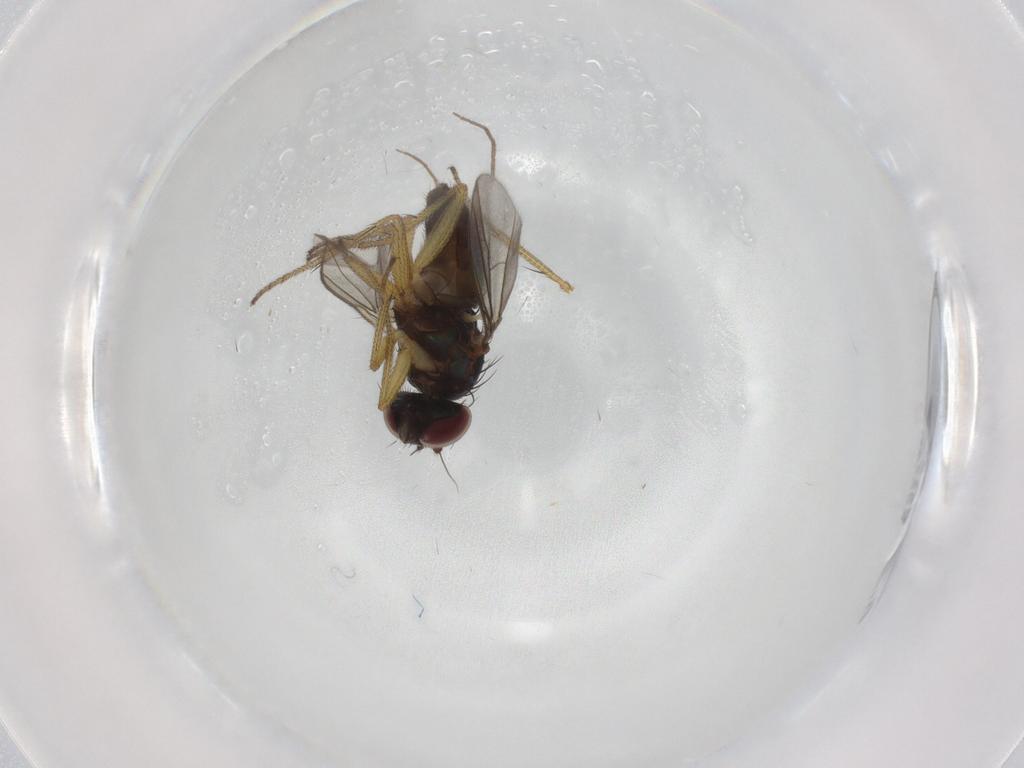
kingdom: Animalia
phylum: Arthropoda
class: Insecta
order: Diptera
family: Chironomidae
